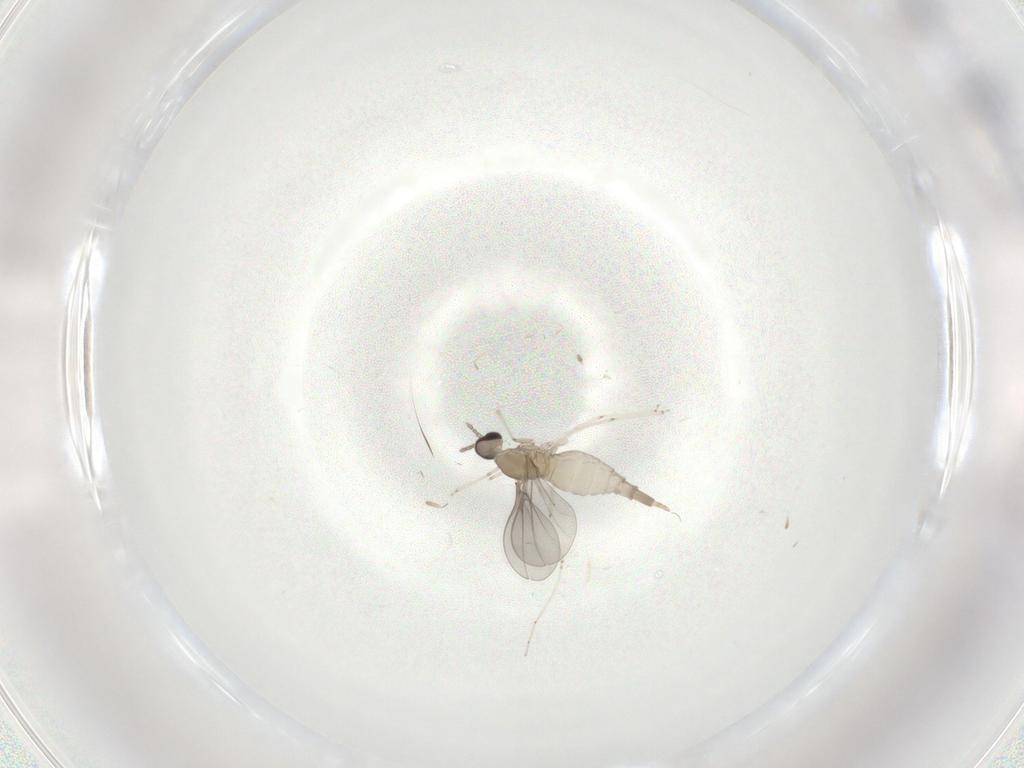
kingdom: Animalia
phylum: Arthropoda
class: Insecta
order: Diptera
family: Cecidomyiidae
